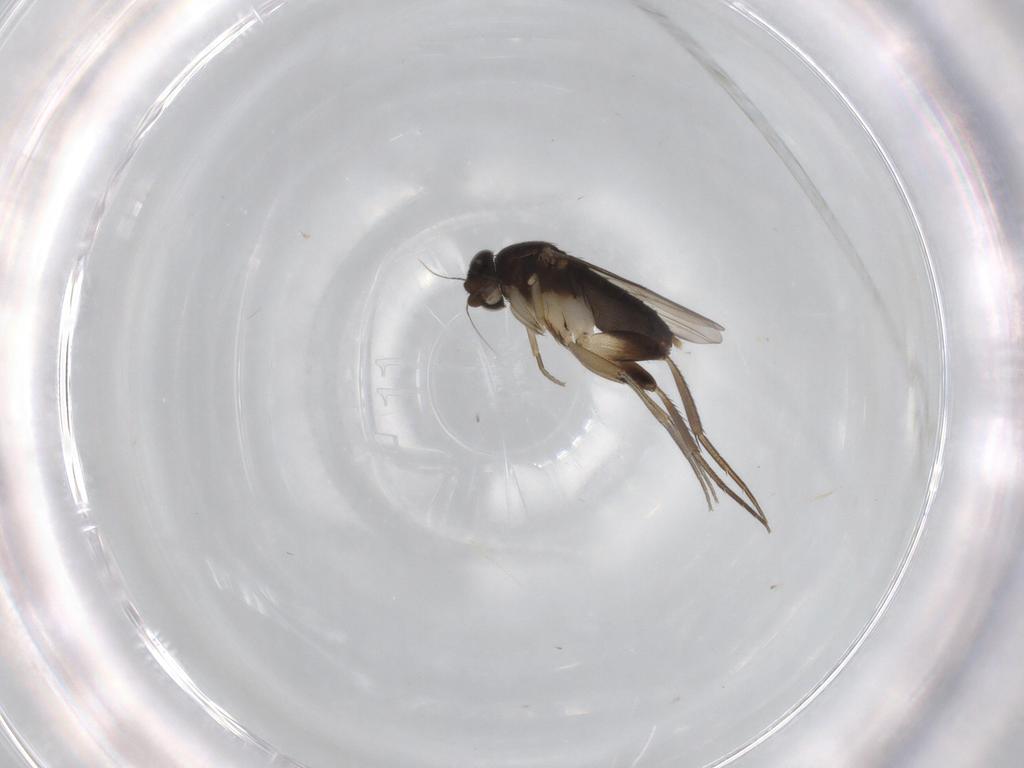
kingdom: Animalia
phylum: Arthropoda
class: Insecta
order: Diptera
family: Phoridae
